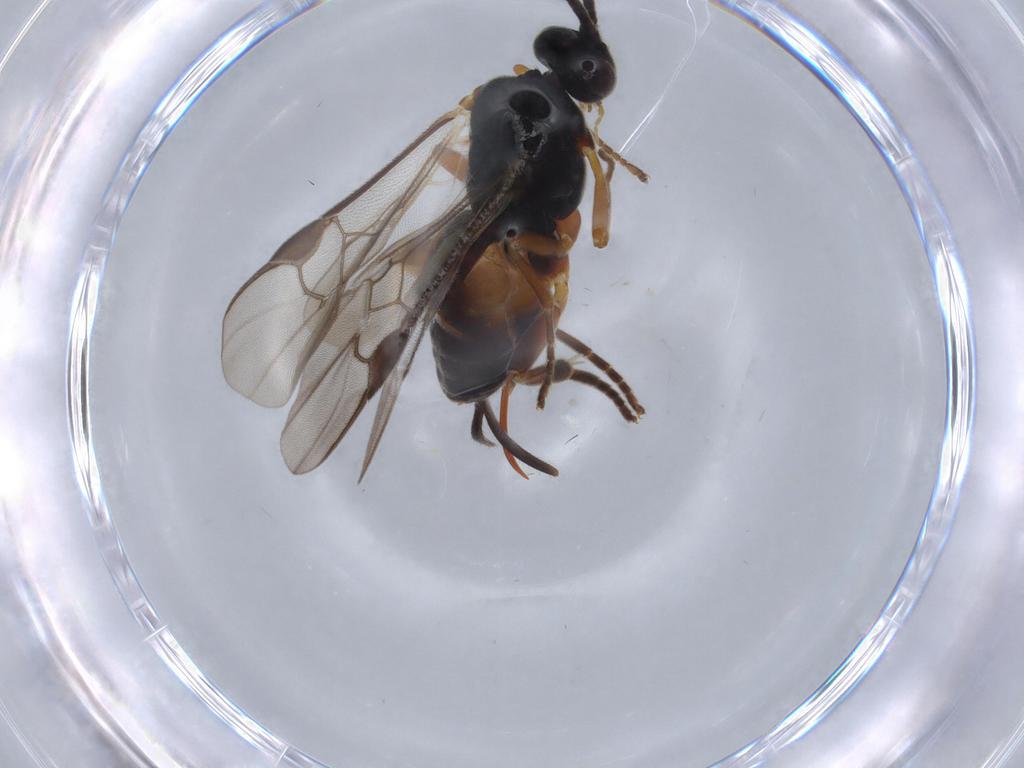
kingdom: Animalia
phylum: Arthropoda
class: Insecta
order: Hymenoptera
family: Braconidae
